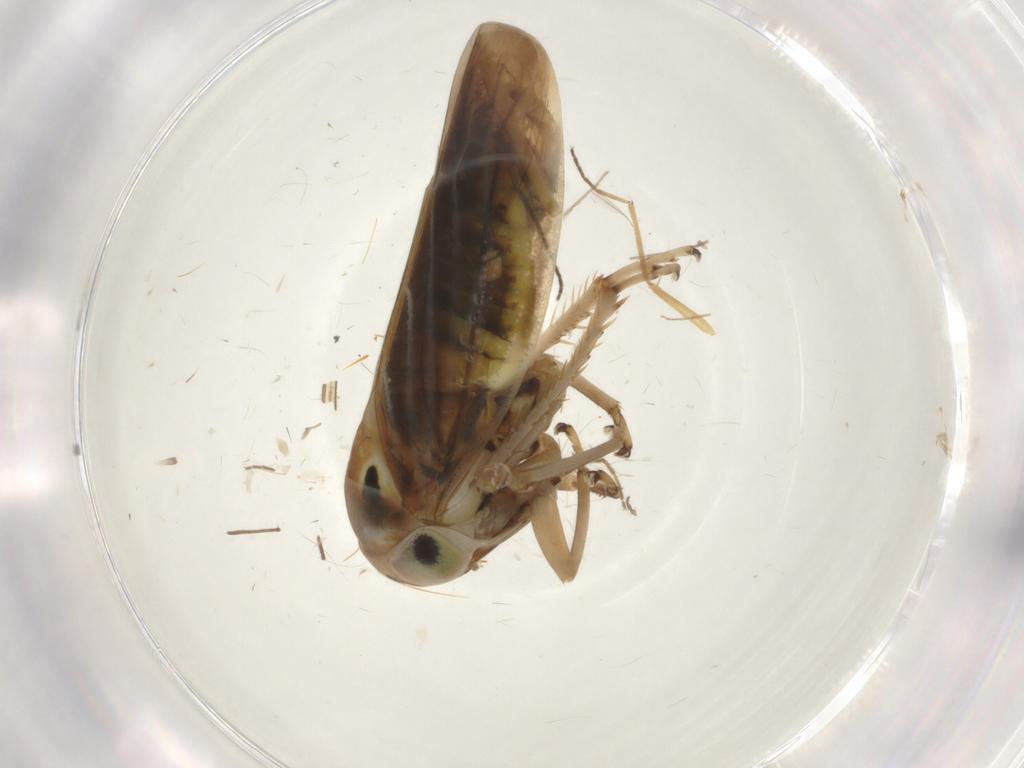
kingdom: Animalia
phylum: Arthropoda
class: Insecta
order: Hemiptera
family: Cicadellidae
